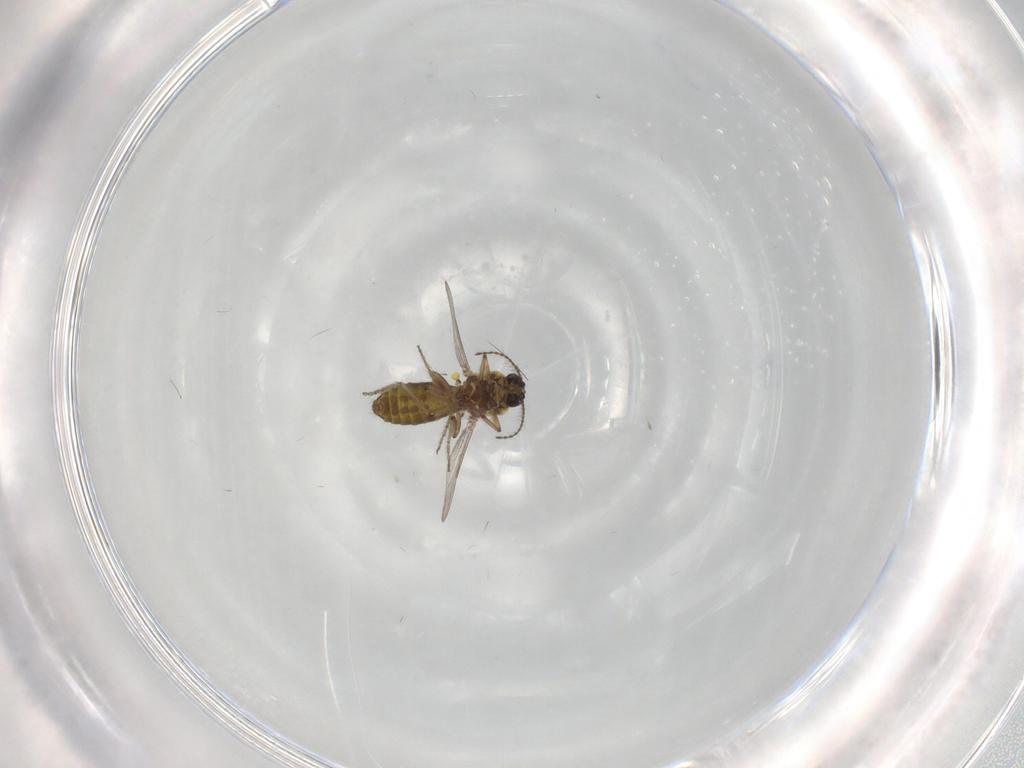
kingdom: Animalia
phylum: Arthropoda
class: Insecta
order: Diptera
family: Sciaridae
